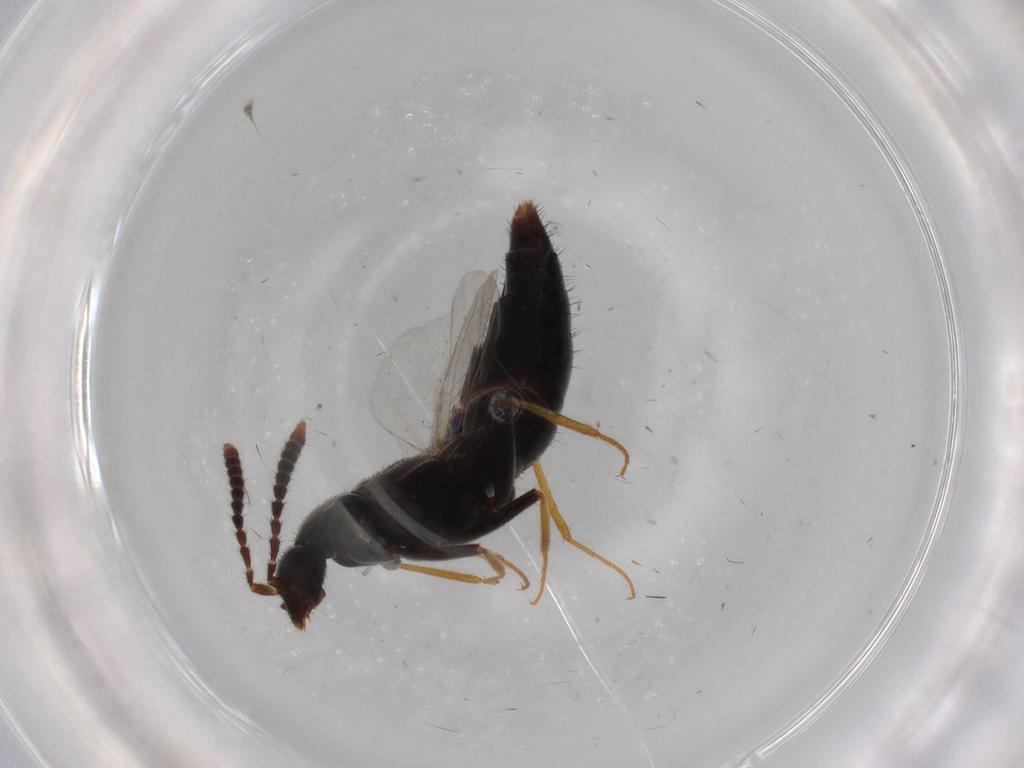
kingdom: Animalia
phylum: Arthropoda
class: Insecta
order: Coleoptera
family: Staphylinidae
